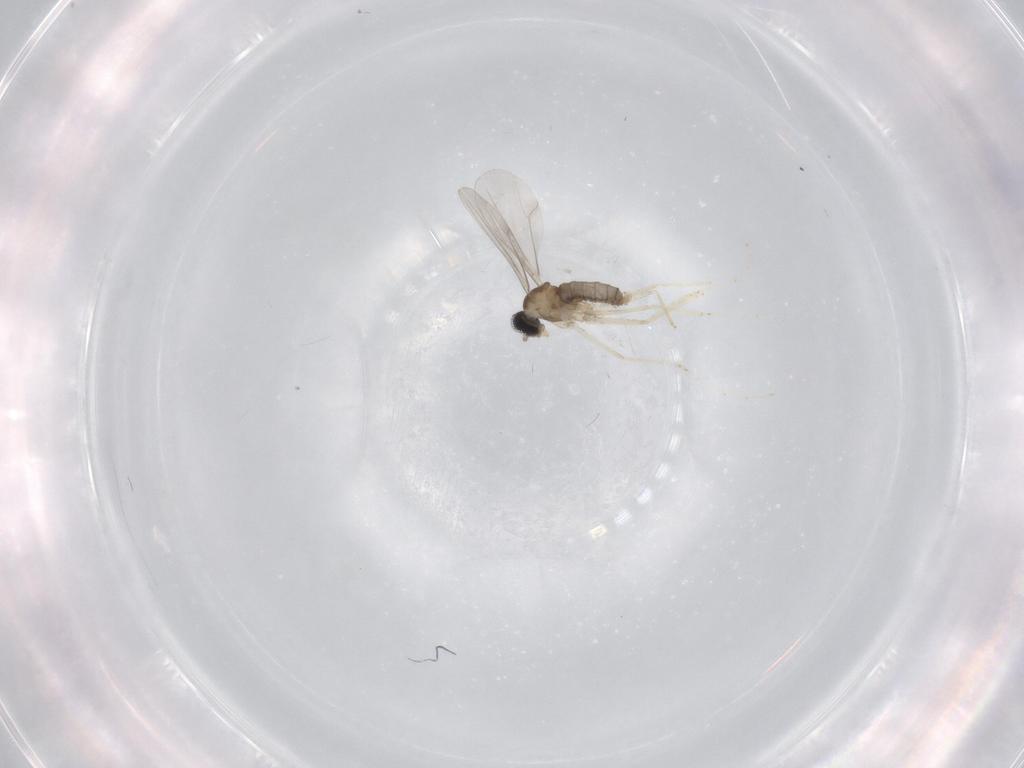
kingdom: Animalia
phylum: Arthropoda
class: Insecta
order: Diptera
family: Cecidomyiidae
